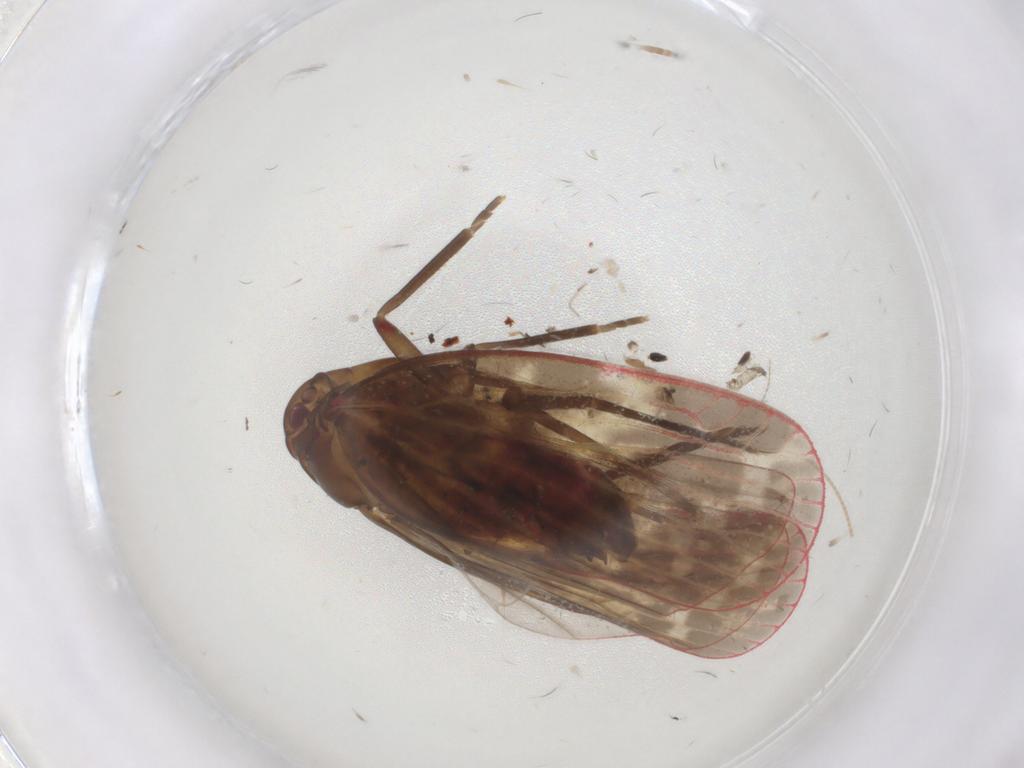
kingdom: Animalia
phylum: Arthropoda
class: Insecta
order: Hemiptera
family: Achilidae
